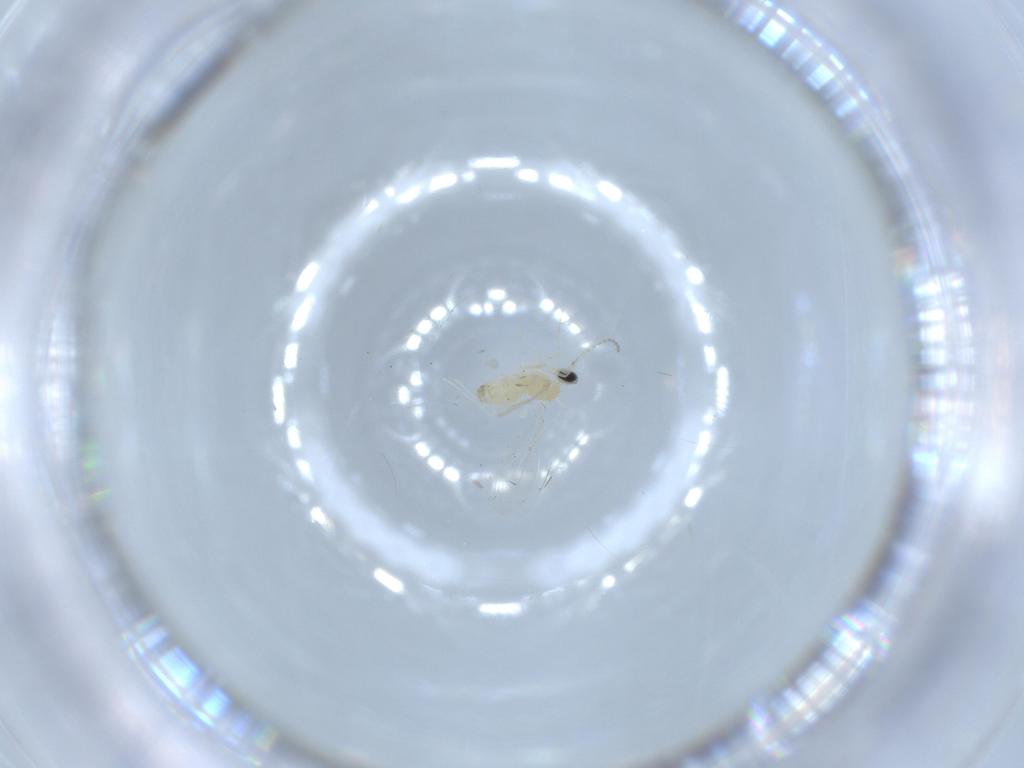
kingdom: Animalia
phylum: Arthropoda
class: Insecta
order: Diptera
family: Cecidomyiidae
